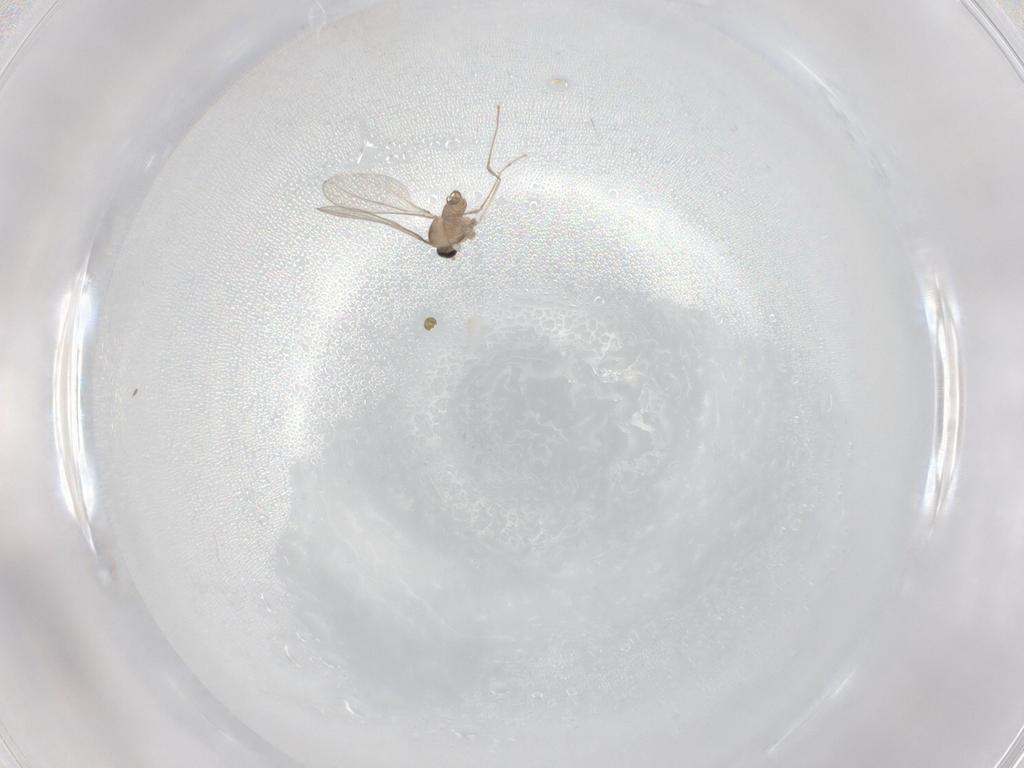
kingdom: Animalia
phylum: Arthropoda
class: Insecta
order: Diptera
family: Cecidomyiidae
